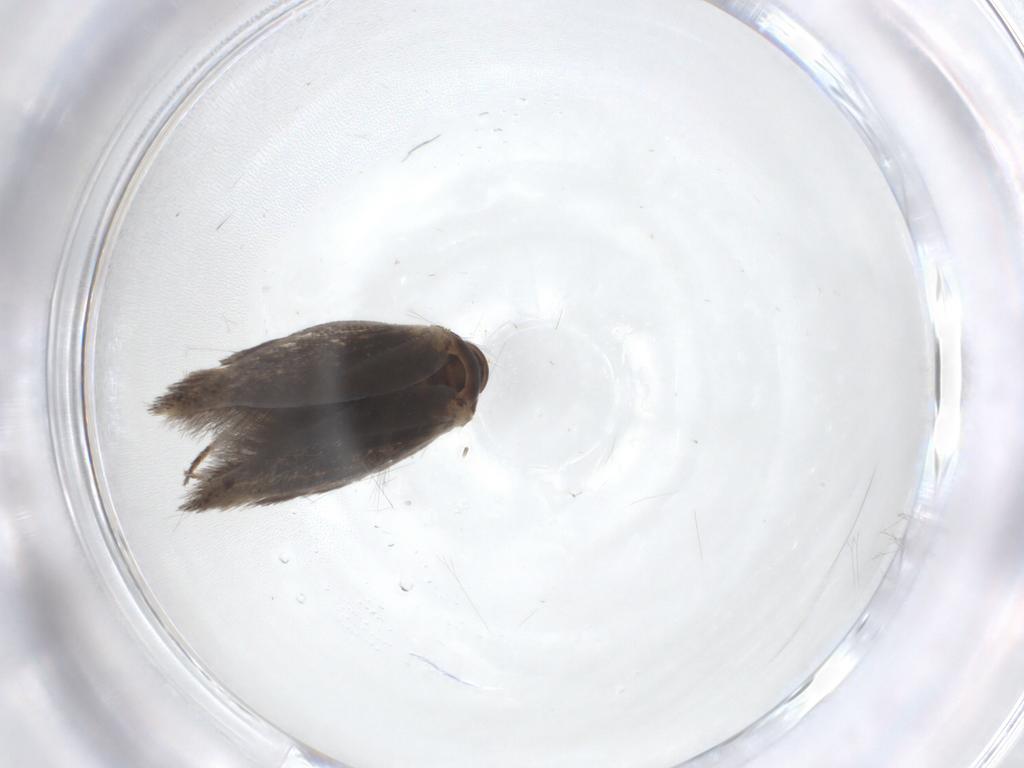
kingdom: Animalia
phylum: Arthropoda
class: Insecta
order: Lepidoptera
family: Elachistidae
